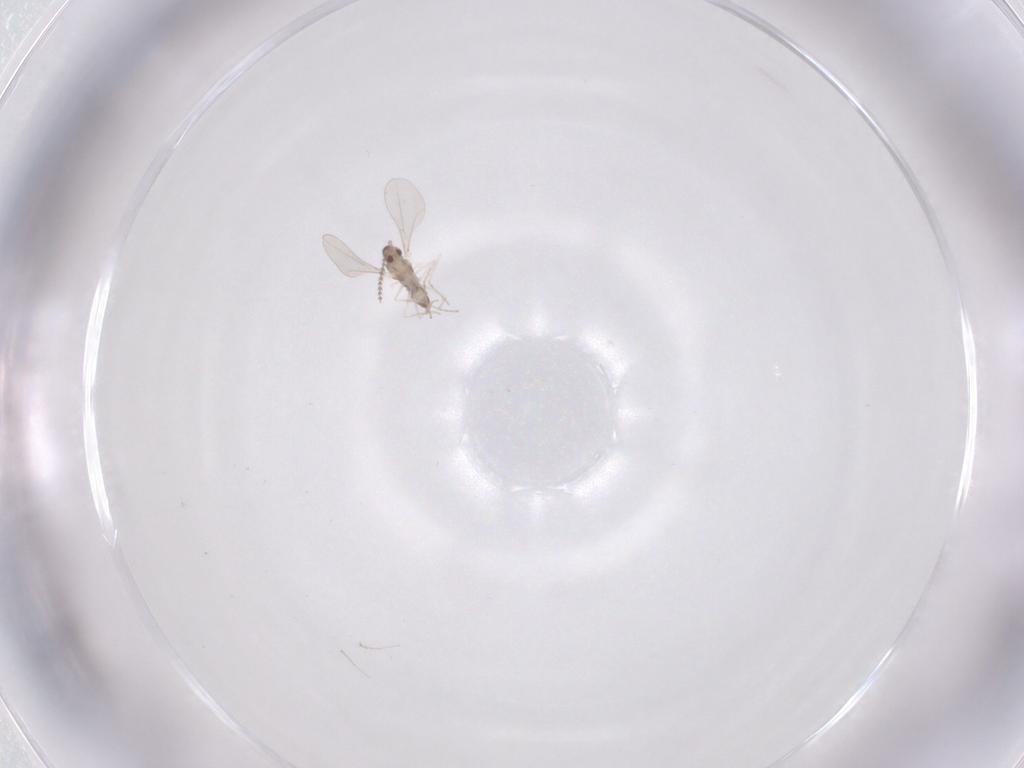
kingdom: Animalia
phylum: Arthropoda
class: Insecta
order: Diptera
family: Cecidomyiidae
